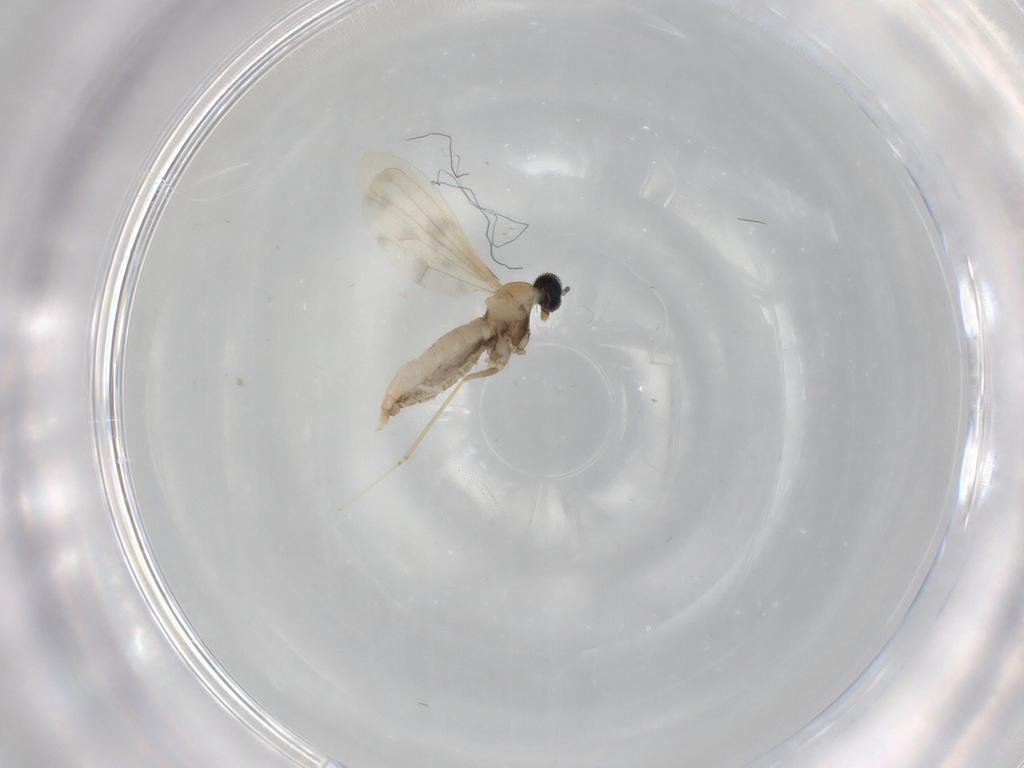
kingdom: Animalia
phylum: Arthropoda
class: Insecta
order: Diptera
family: Cecidomyiidae
